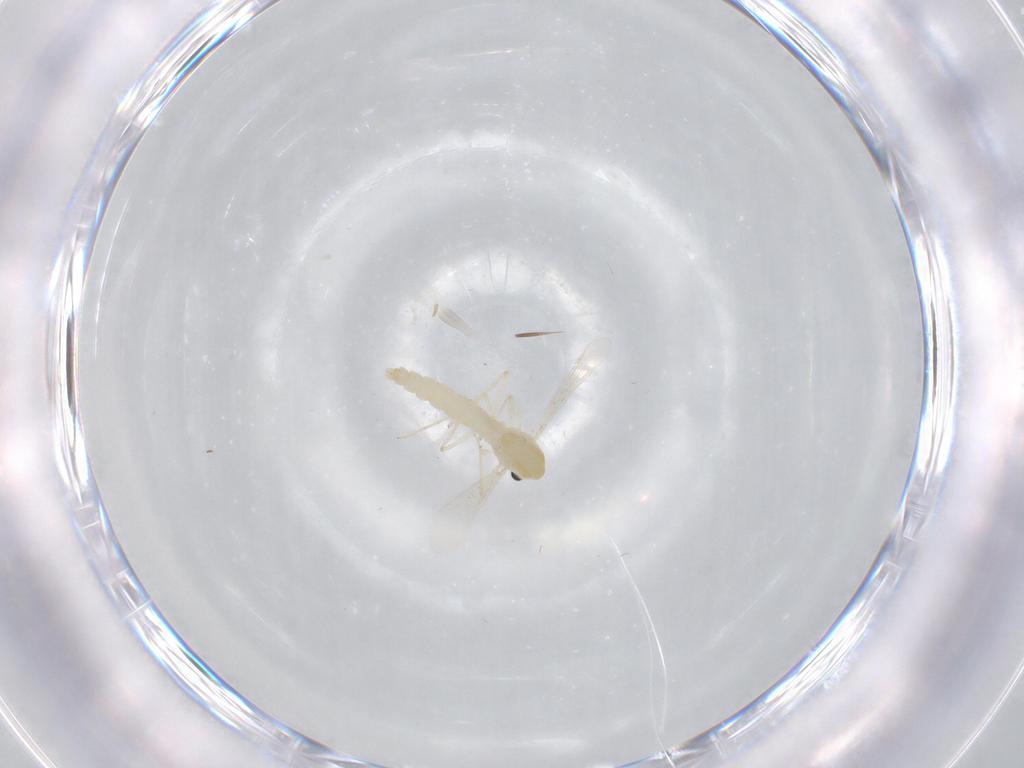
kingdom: Animalia
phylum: Arthropoda
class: Insecta
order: Diptera
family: Chironomidae
